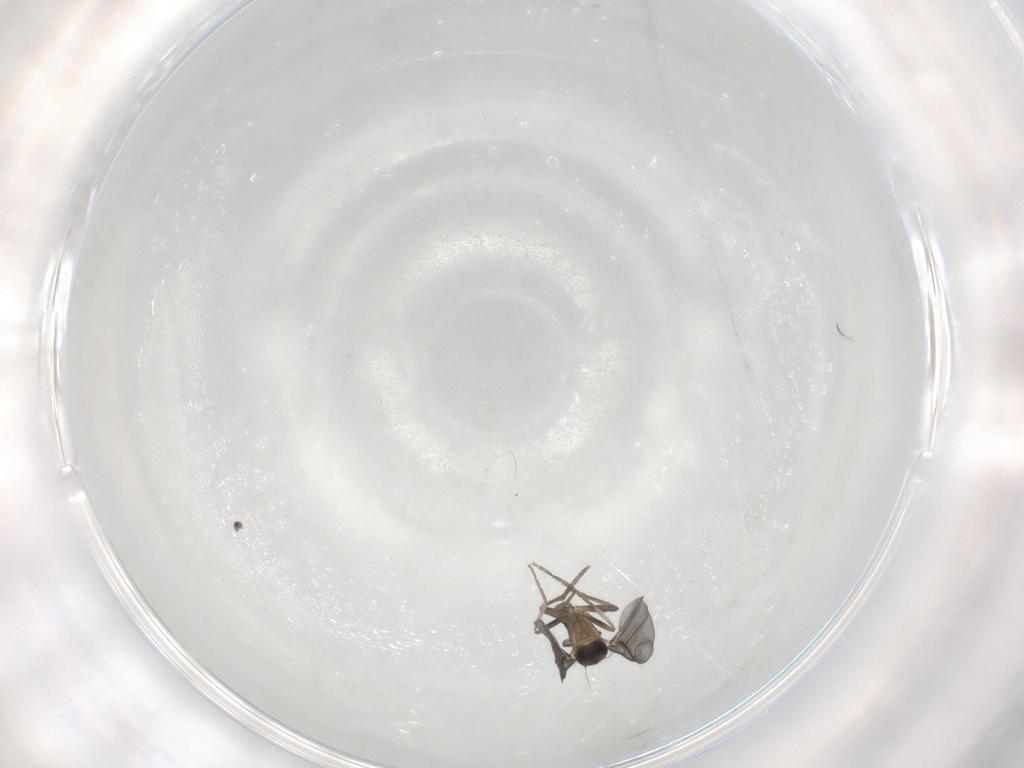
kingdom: Animalia
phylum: Arthropoda
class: Insecta
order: Diptera
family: Phoridae
